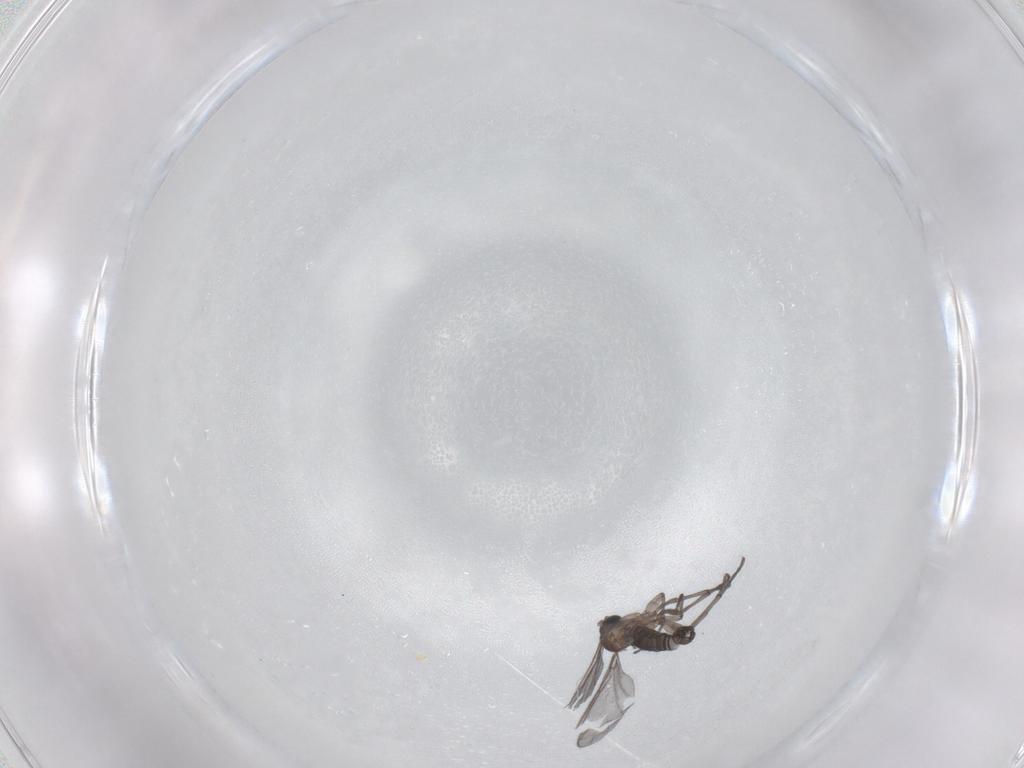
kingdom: Animalia
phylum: Arthropoda
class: Insecta
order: Diptera
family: Sciaridae
